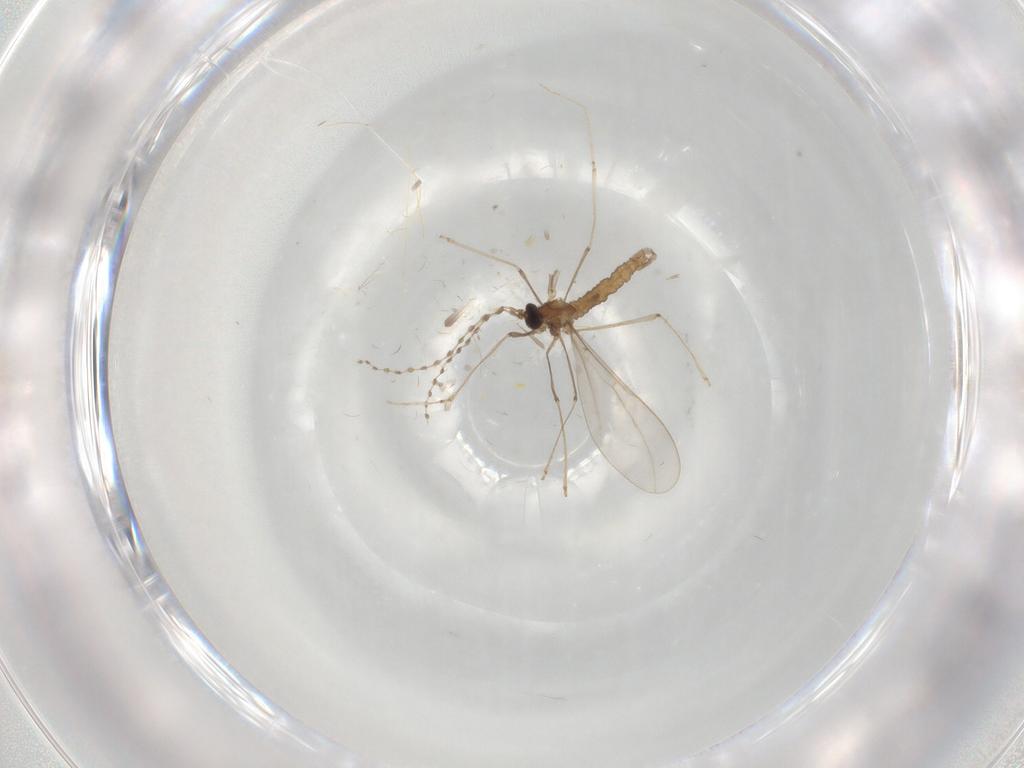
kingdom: Animalia
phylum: Arthropoda
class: Insecta
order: Diptera
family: Cecidomyiidae
